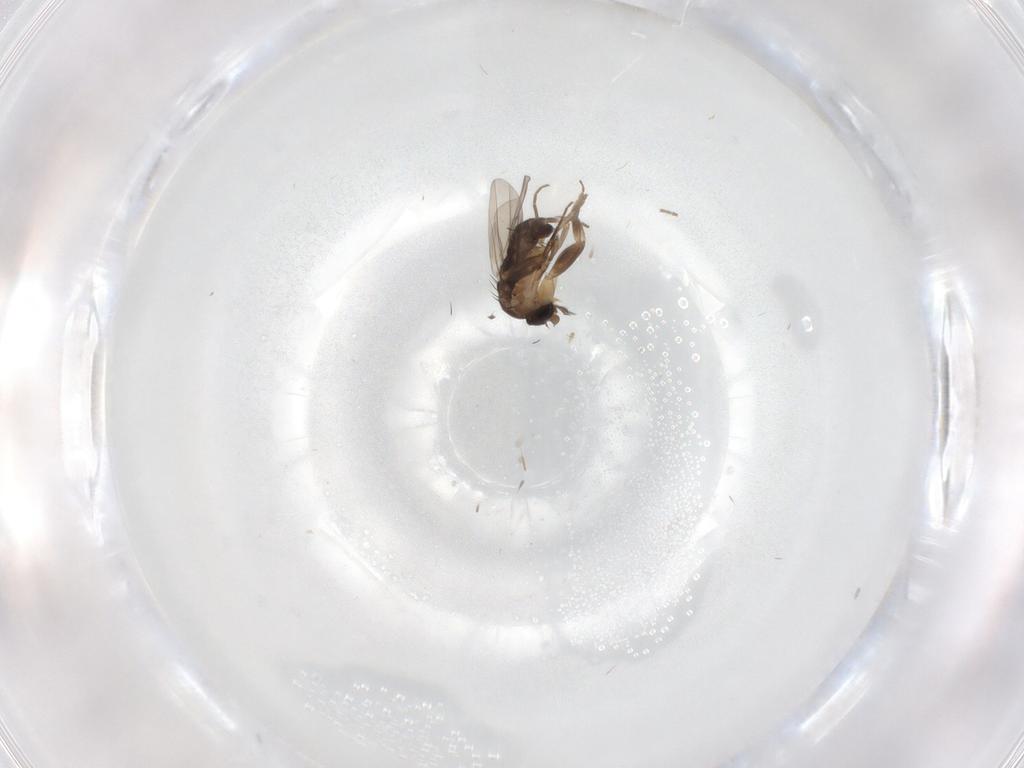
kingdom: Animalia
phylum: Arthropoda
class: Insecta
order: Diptera
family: Phoridae
